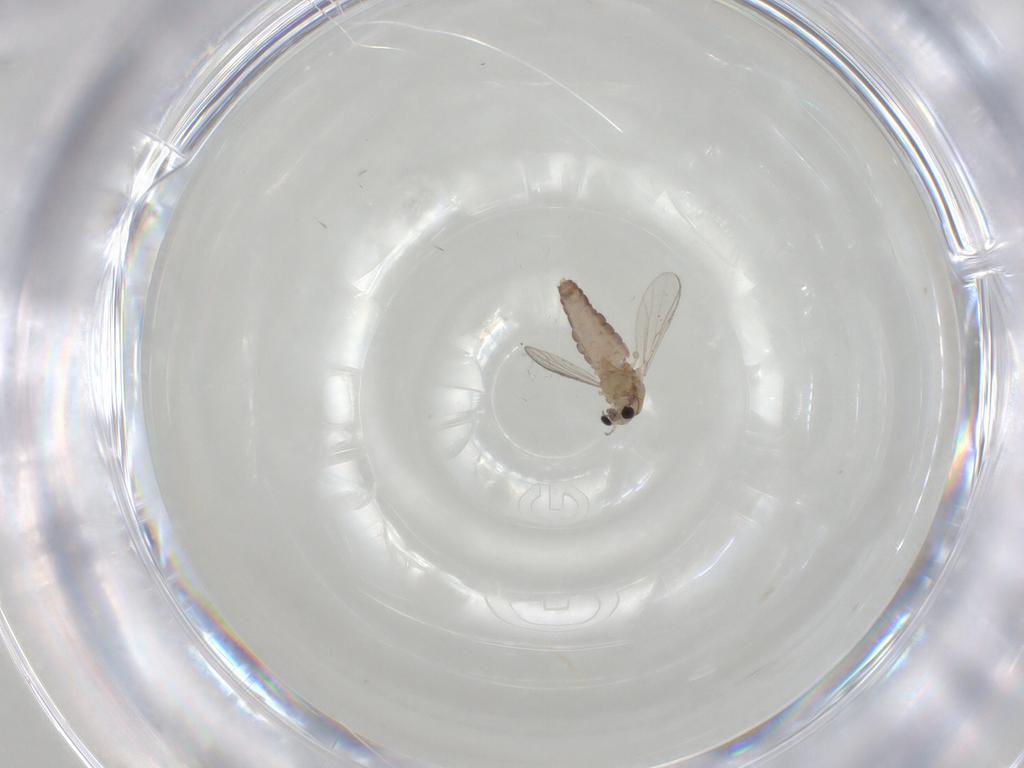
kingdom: Animalia
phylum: Arthropoda
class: Insecta
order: Diptera
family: Chironomidae
